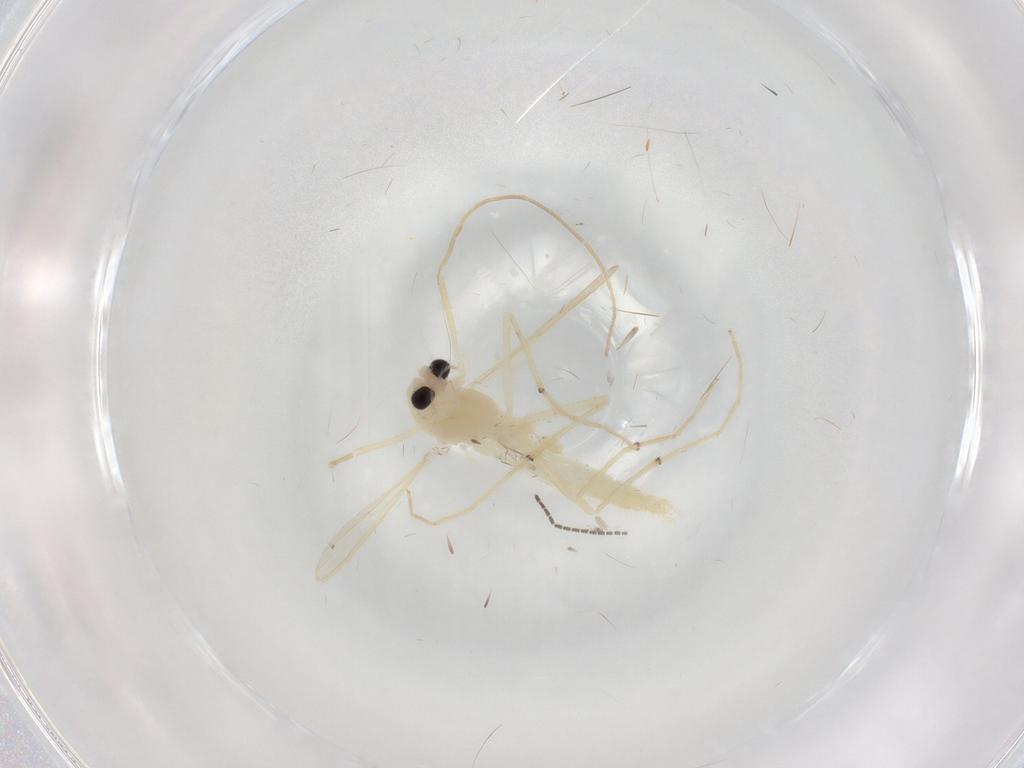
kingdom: Animalia
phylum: Arthropoda
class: Insecta
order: Diptera
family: Chironomidae
